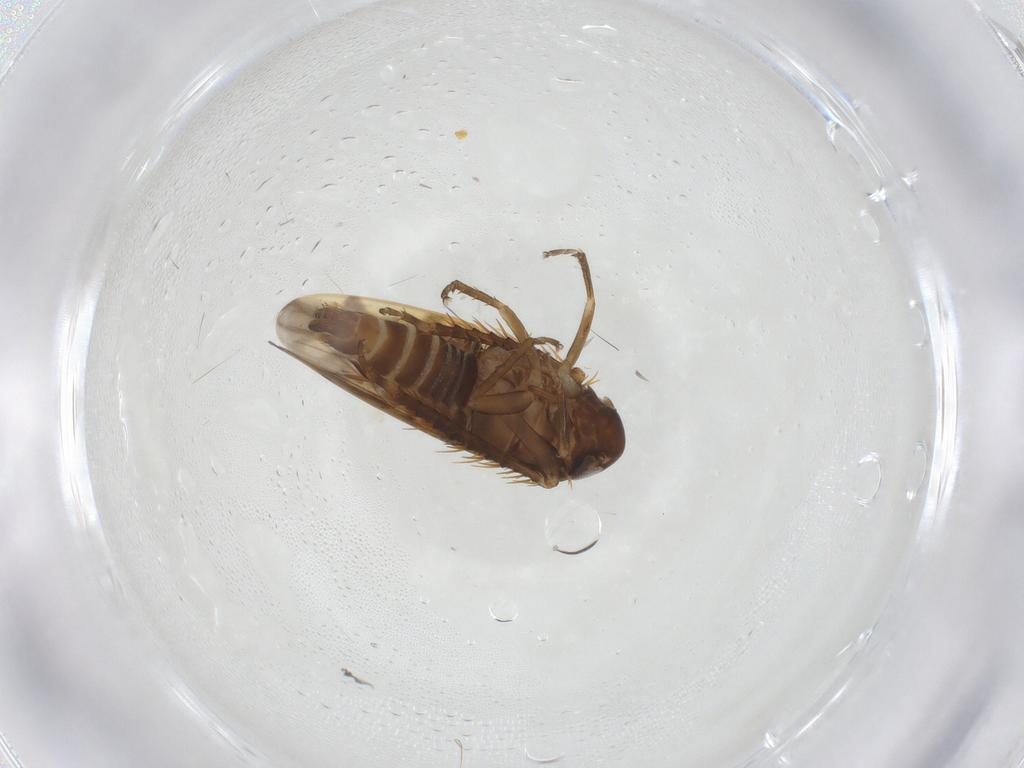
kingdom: Animalia
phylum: Arthropoda
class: Insecta
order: Hemiptera
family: Cicadellidae
